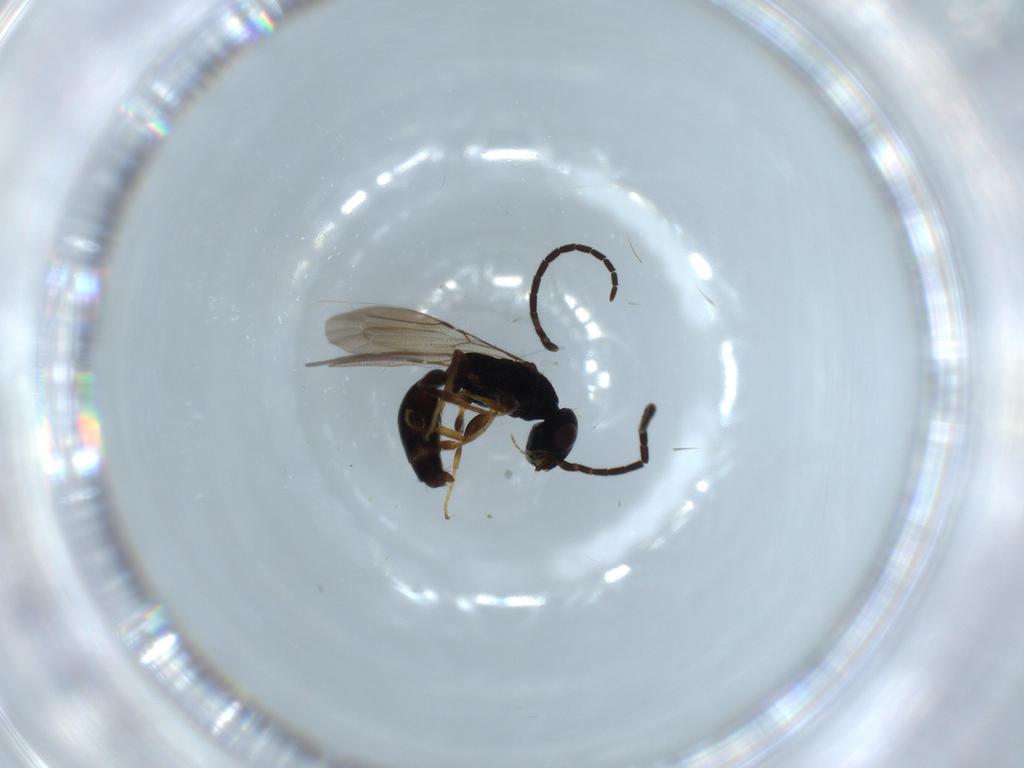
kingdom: Animalia
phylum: Arthropoda
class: Insecta
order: Hymenoptera
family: Bethylidae
